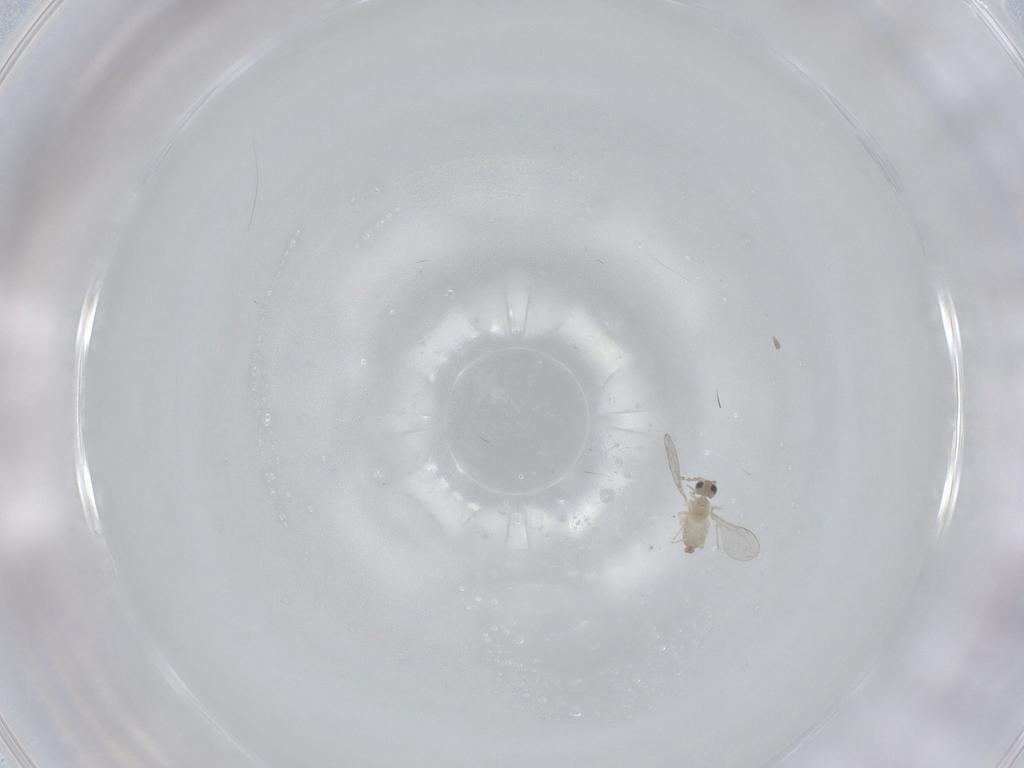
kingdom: Animalia
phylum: Arthropoda
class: Insecta
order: Diptera
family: Cecidomyiidae
